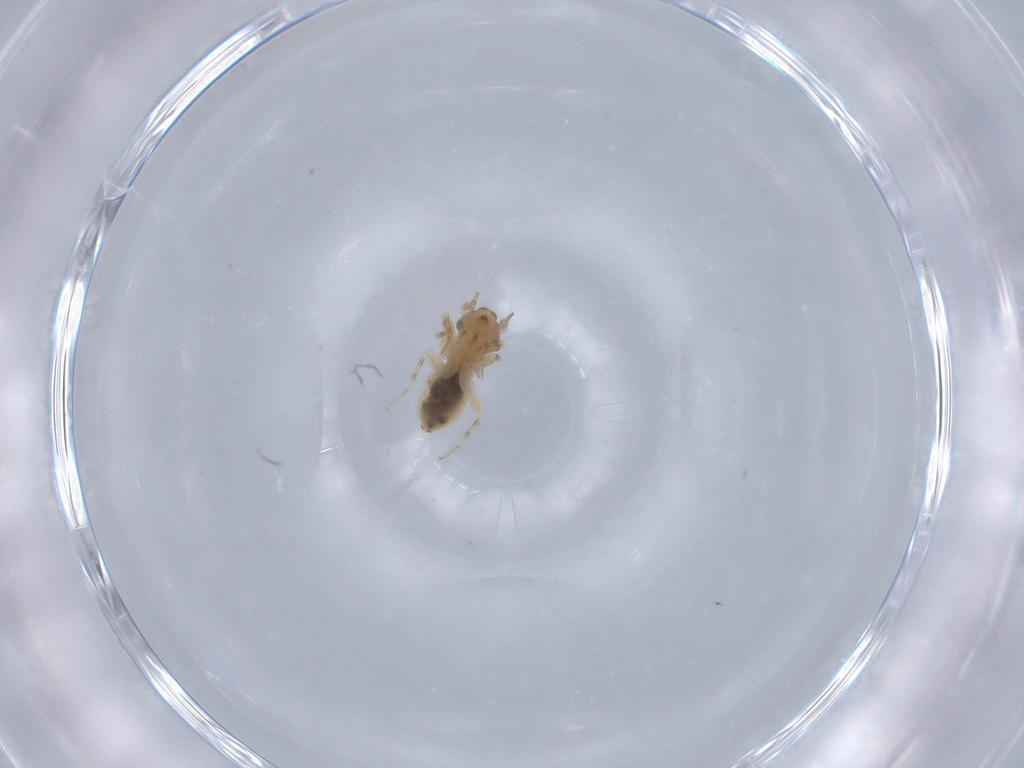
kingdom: Animalia
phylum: Arthropoda
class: Insecta
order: Psocodea
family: Lepidopsocidae
